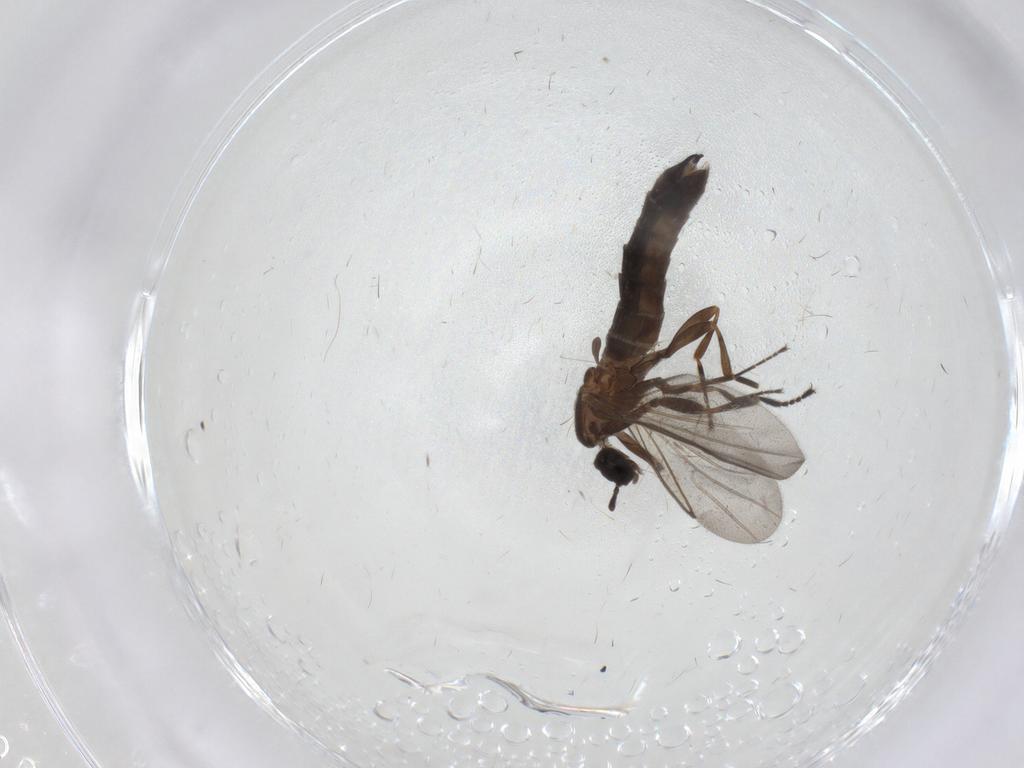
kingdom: Animalia
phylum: Arthropoda
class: Insecta
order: Diptera
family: Scatopsidae
